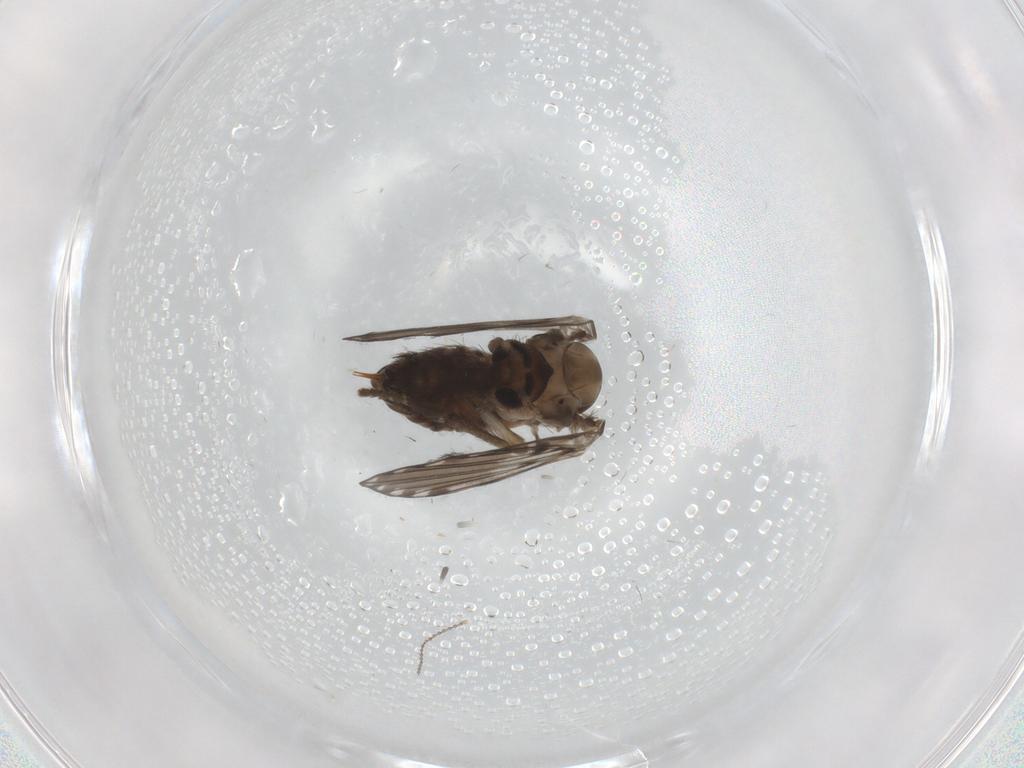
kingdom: Animalia
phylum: Arthropoda
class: Insecta
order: Diptera
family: Psychodidae
